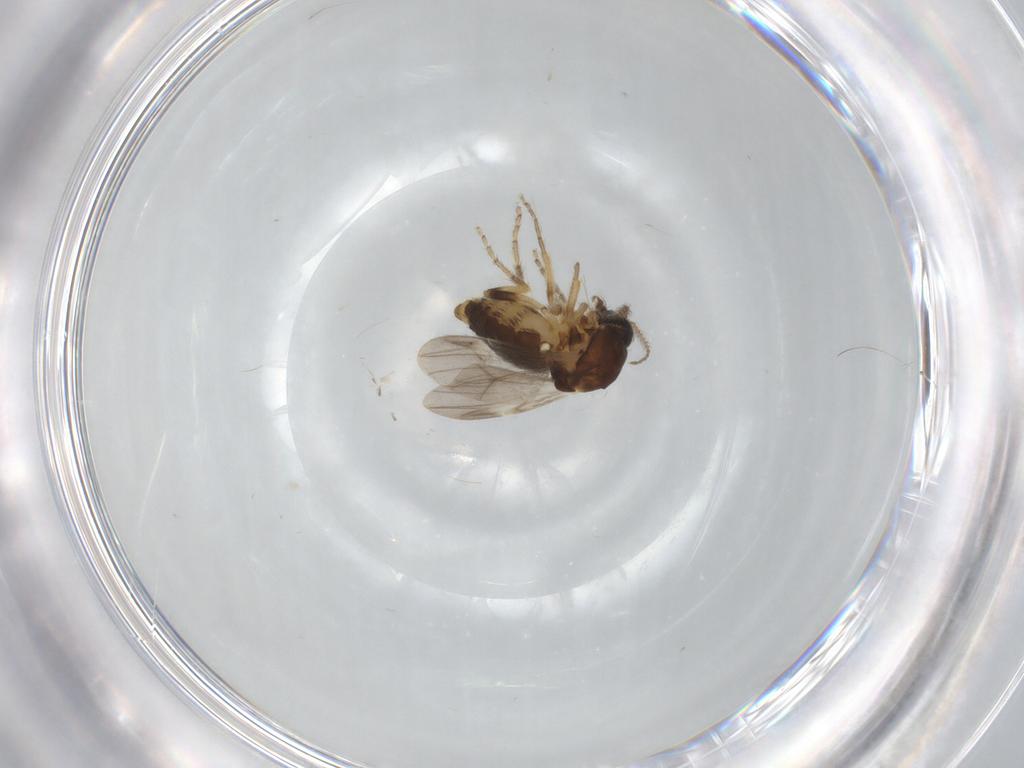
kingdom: Animalia
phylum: Arthropoda
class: Insecta
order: Diptera
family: Ceratopogonidae
